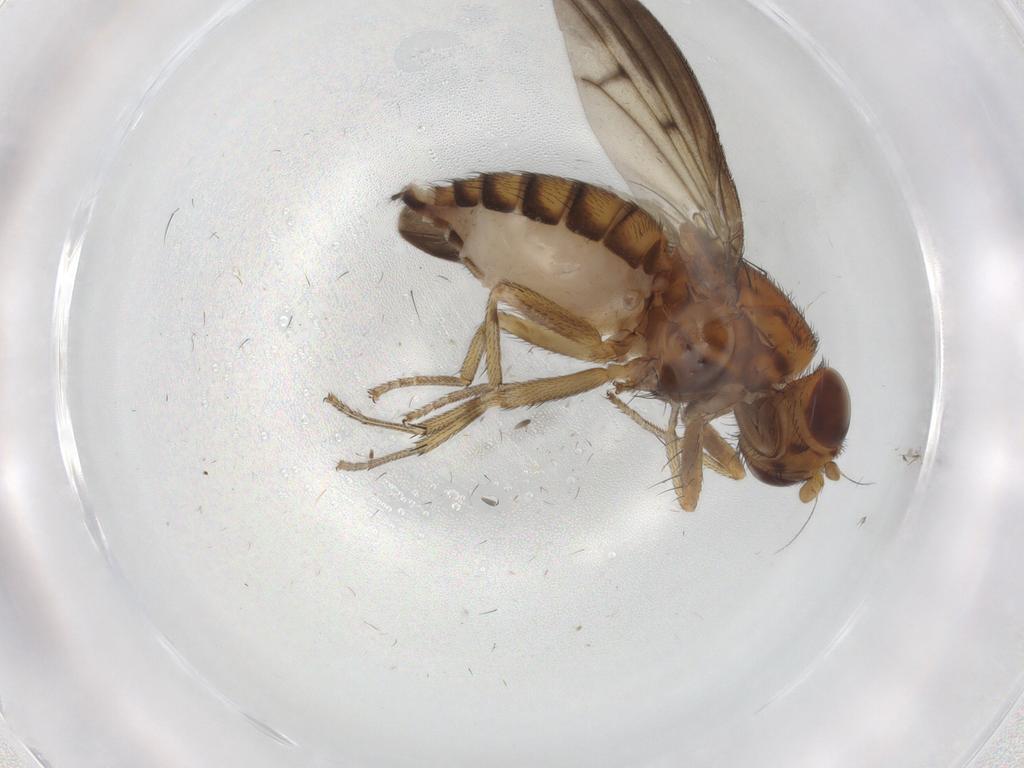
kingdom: Animalia
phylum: Arthropoda
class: Insecta
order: Diptera
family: Lauxaniidae
